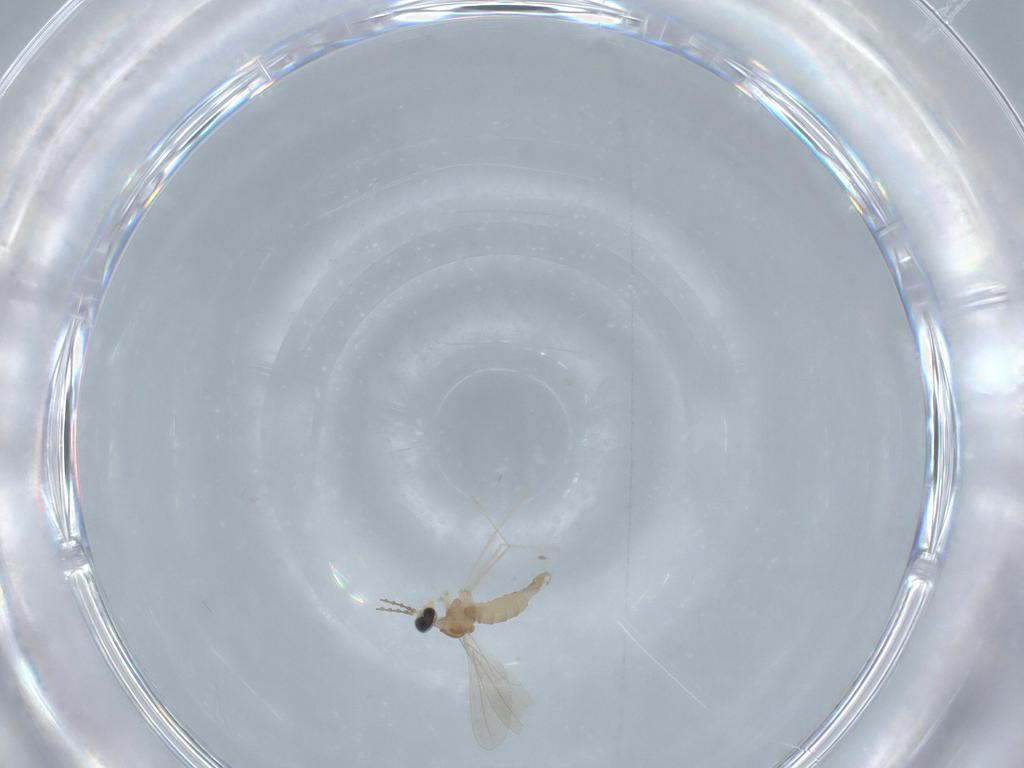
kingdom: Animalia
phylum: Arthropoda
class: Insecta
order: Diptera
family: Cecidomyiidae
